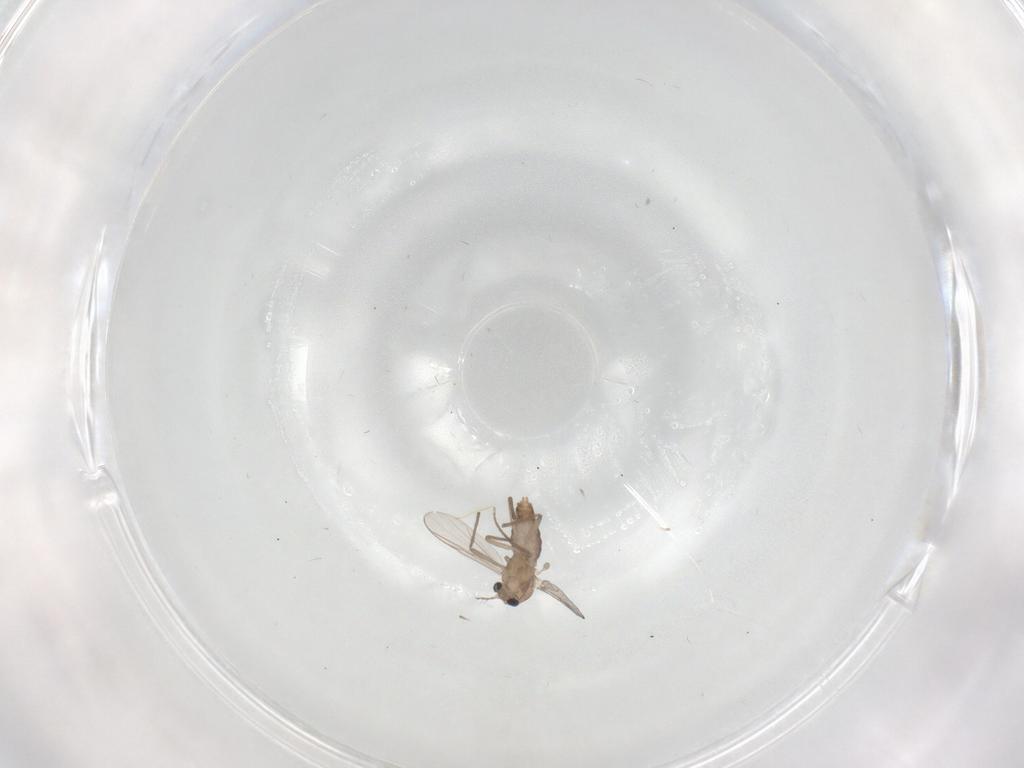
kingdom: Animalia
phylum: Arthropoda
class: Insecta
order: Diptera
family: Chironomidae
